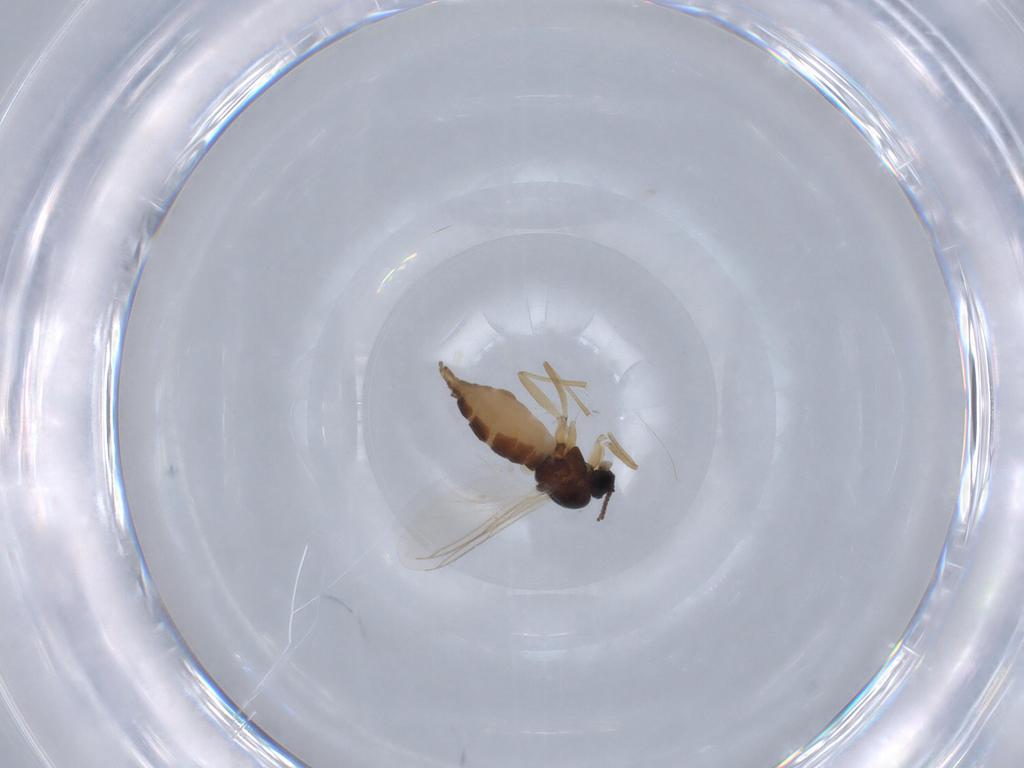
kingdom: Animalia
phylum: Arthropoda
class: Insecta
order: Diptera
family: Sciaridae
